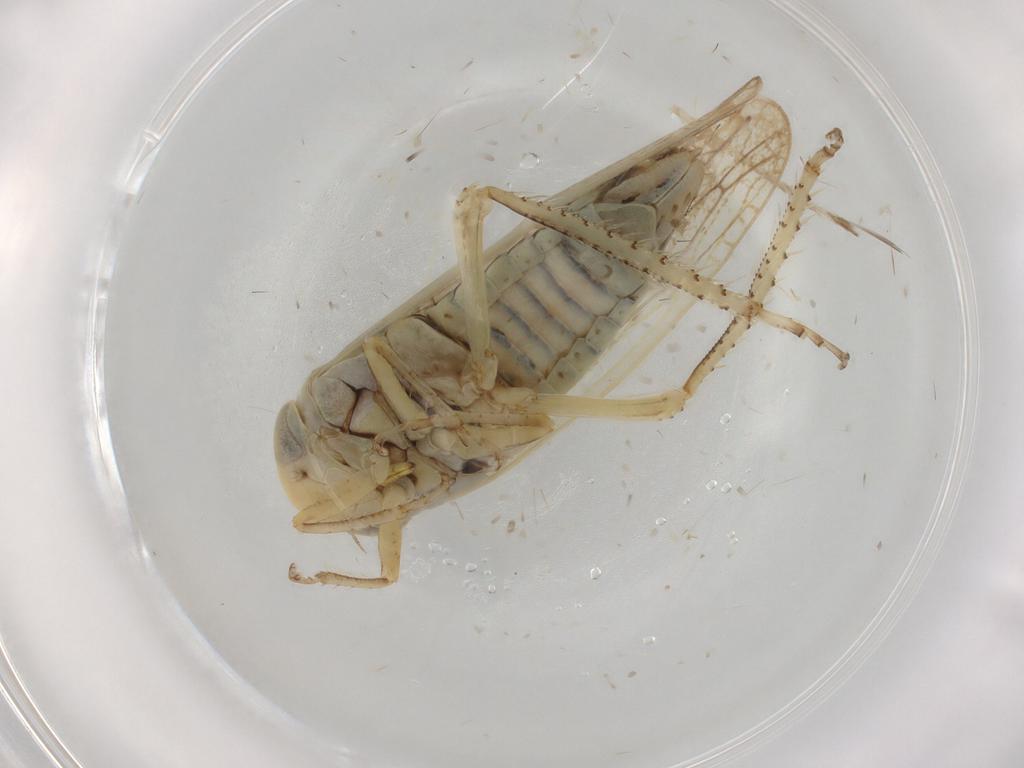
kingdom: Animalia
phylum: Arthropoda
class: Insecta
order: Hemiptera
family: Cicadellidae
